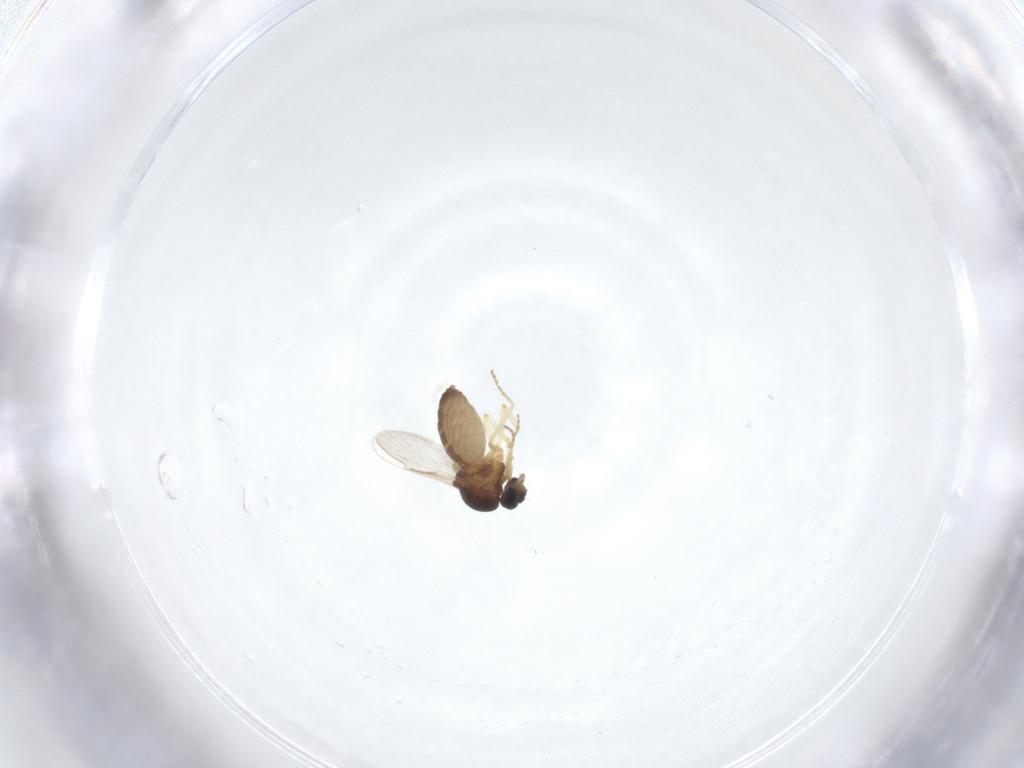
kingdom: Animalia
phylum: Arthropoda
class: Insecta
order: Diptera
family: Ceratopogonidae
